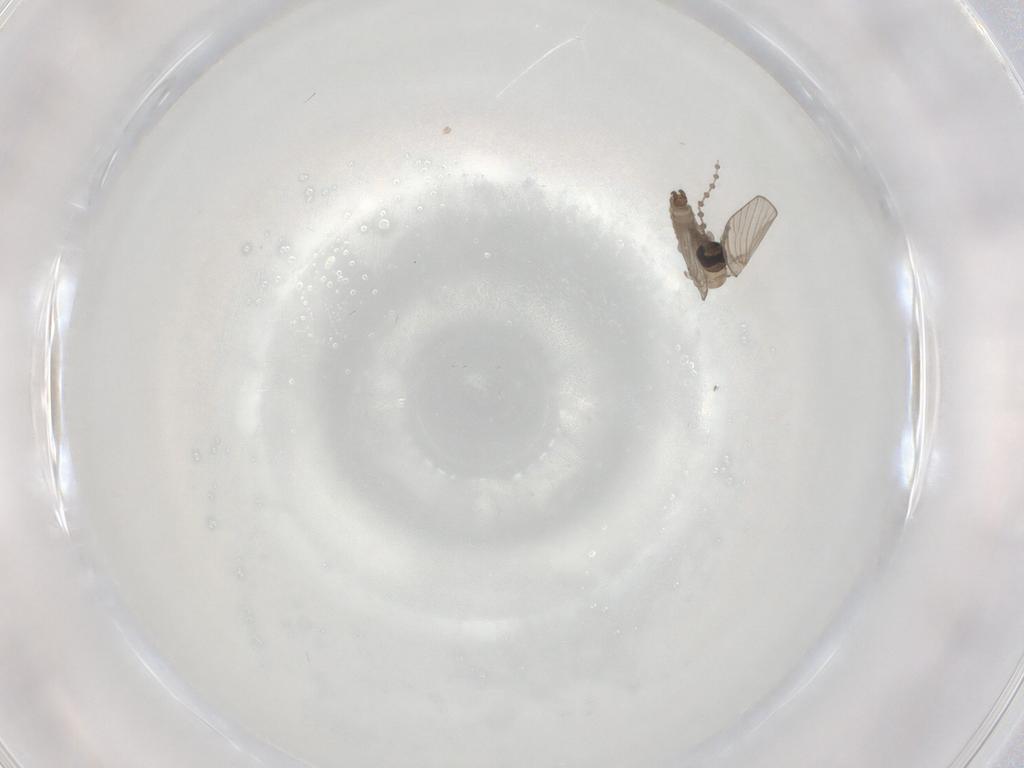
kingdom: Animalia
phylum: Arthropoda
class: Insecta
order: Diptera
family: Psychodidae
